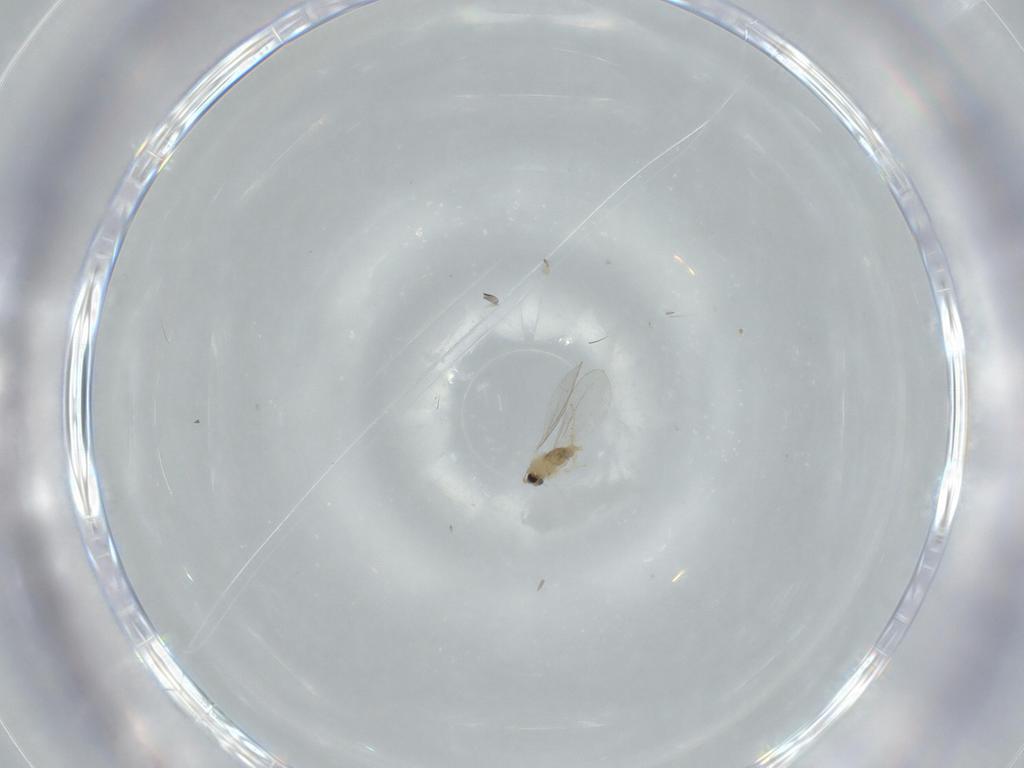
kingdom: Animalia
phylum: Arthropoda
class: Insecta
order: Diptera
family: Cecidomyiidae
